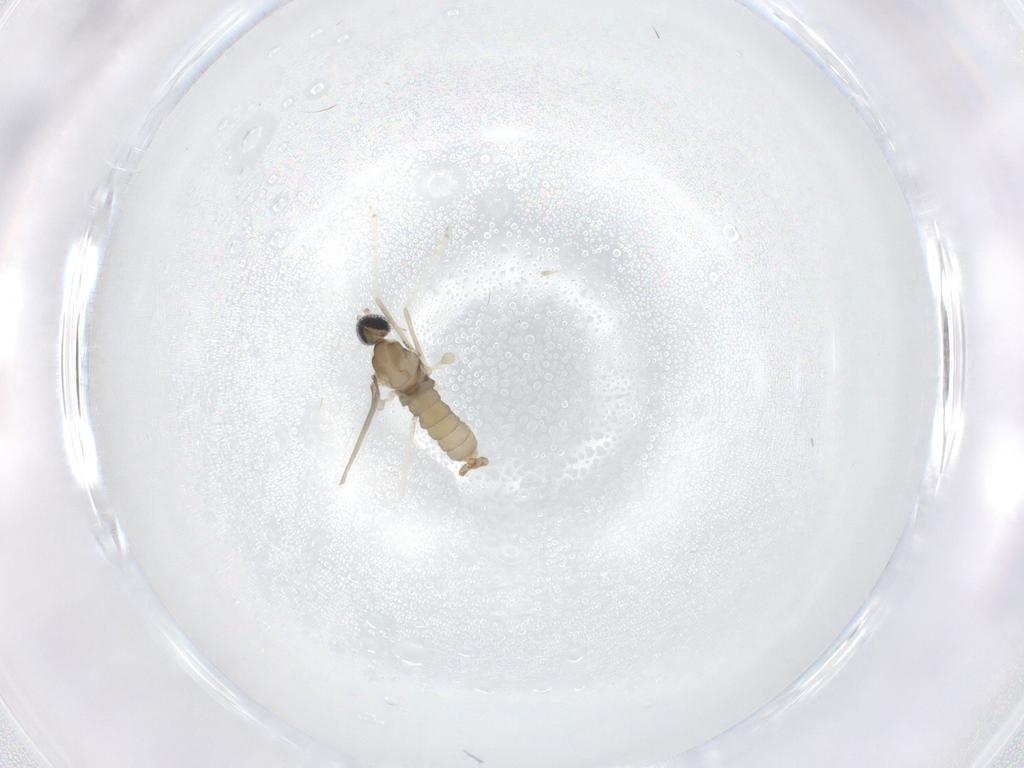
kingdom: Animalia
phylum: Arthropoda
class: Insecta
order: Diptera
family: Cecidomyiidae
